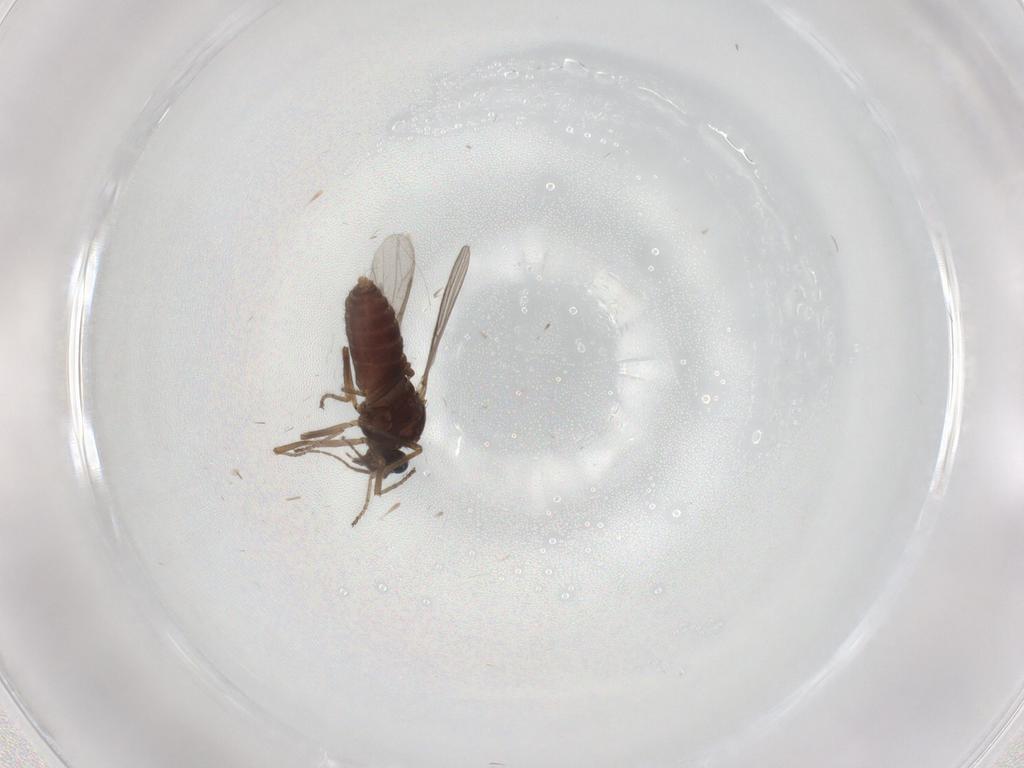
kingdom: Animalia
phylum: Arthropoda
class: Insecta
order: Diptera
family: Ceratopogonidae
